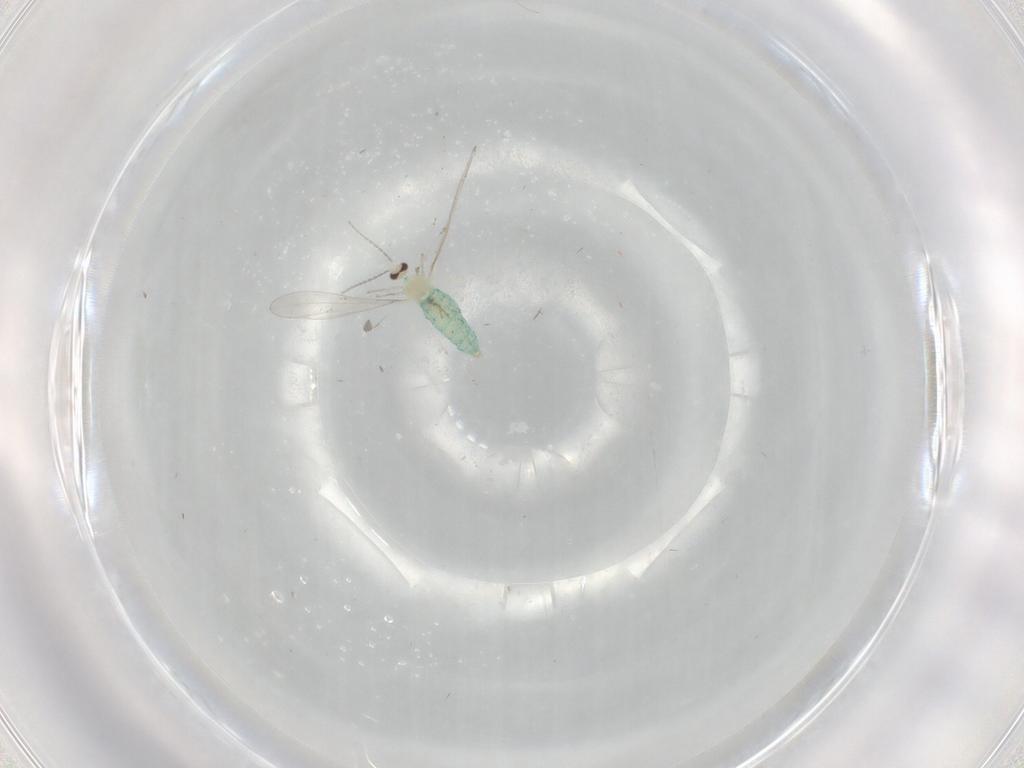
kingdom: Animalia
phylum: Arthropoda
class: Insecta
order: Diptera
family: Cecidomyiidae
